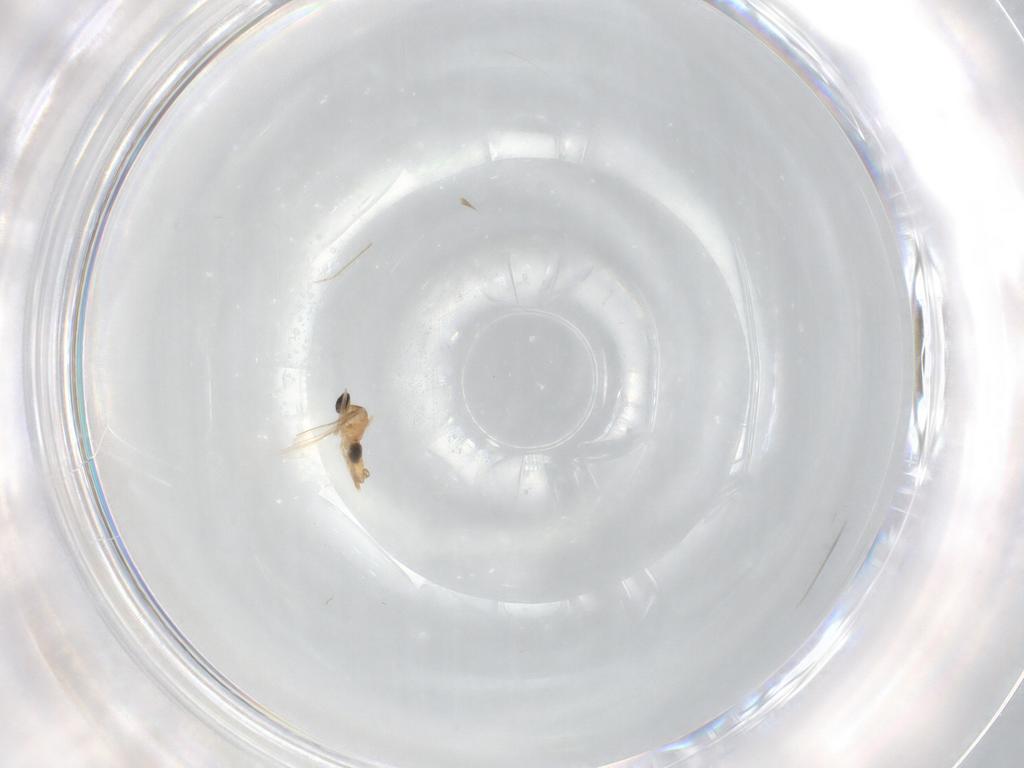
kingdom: Animalia
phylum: Arthropoda
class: Insecta
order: Diptera
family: Cecidomyiidae
